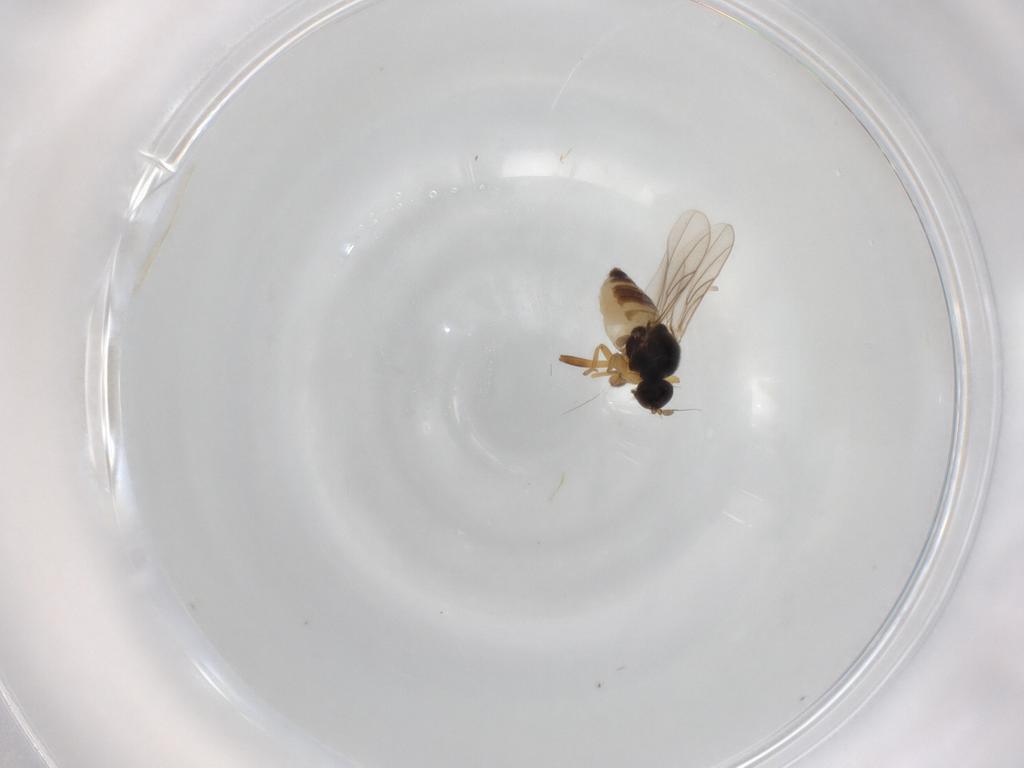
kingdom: Animalia
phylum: Arthropoda
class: Insecta
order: Diptera
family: Hybotidae
